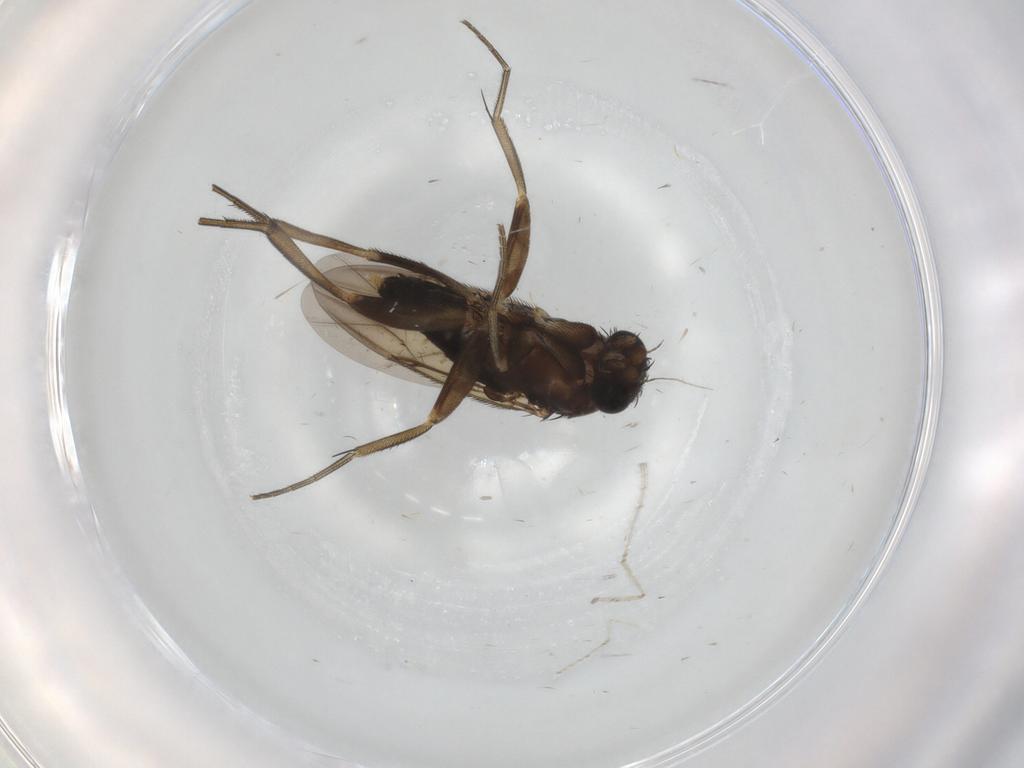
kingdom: Animalia
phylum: Arthropoda
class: Insecta
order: Diptera
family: Phoridae
